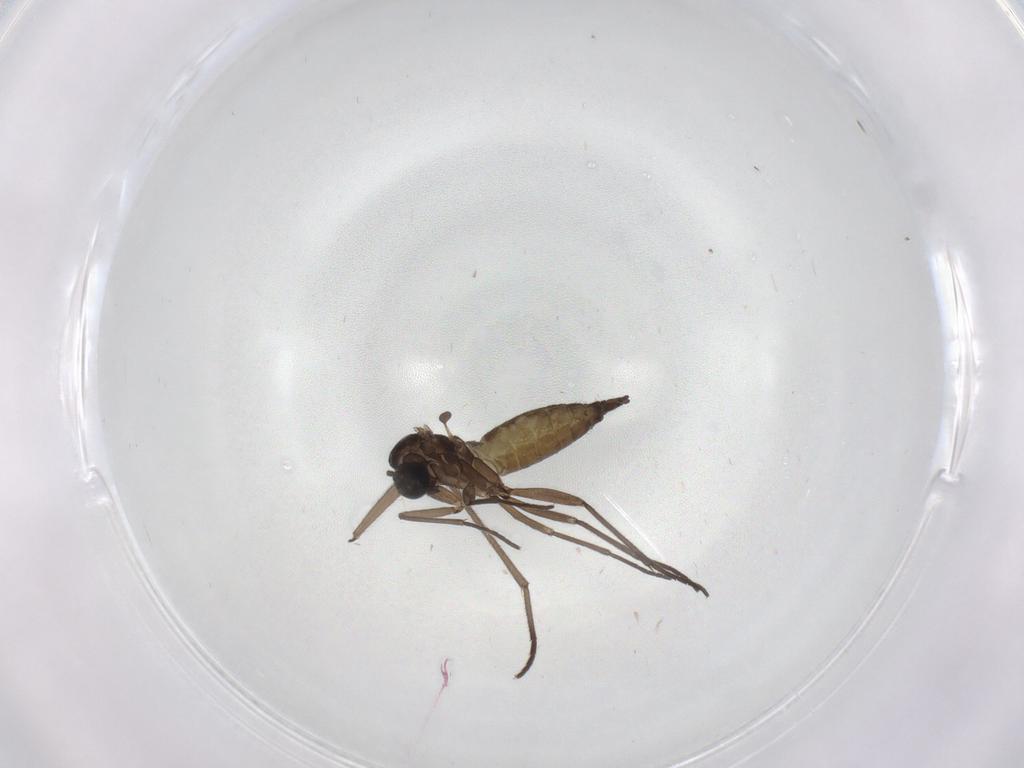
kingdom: Animalia
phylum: Arthropoda
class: Insecta
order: Diptera
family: Sciaridae
